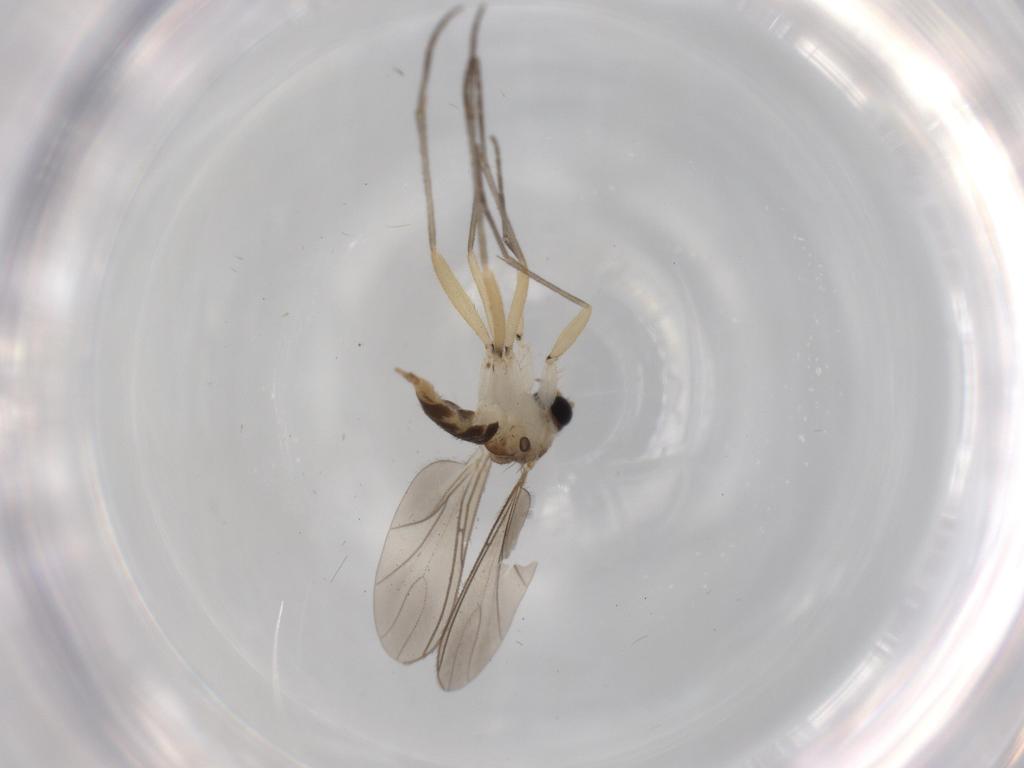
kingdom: Animalia
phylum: Arthropoda
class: Insecta
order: Diptera
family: Sciaridae
